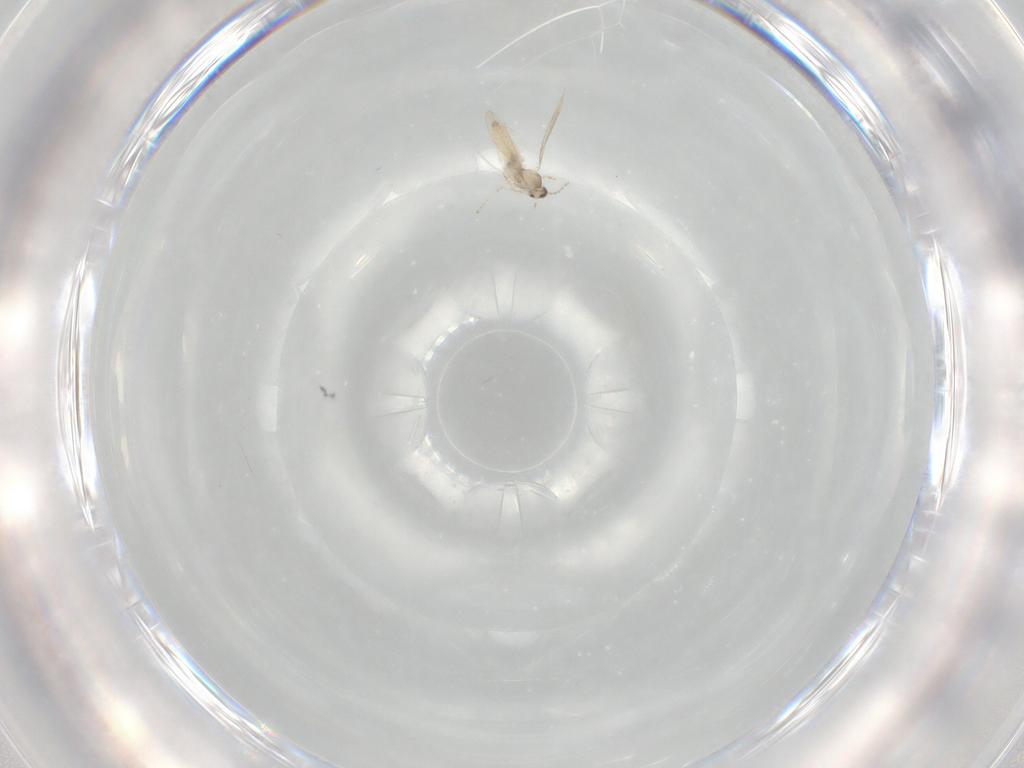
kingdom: Animalia
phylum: Arthropoda
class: Insecta
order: Diptera
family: Cecidomyiidae
